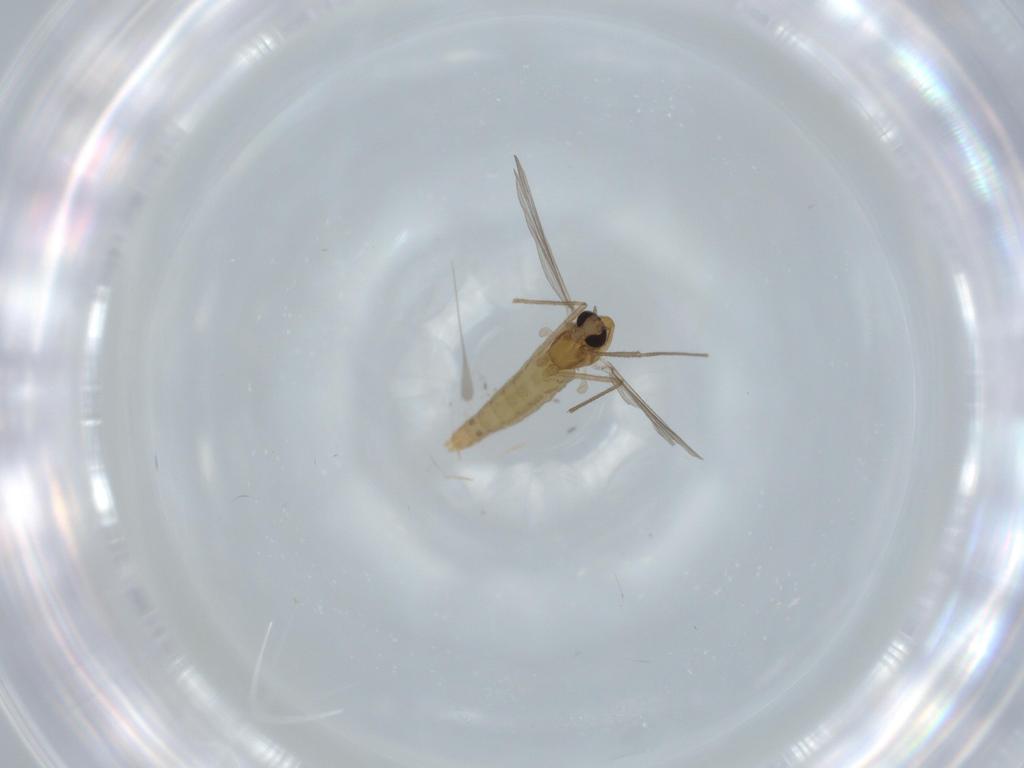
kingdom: Animalia
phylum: Arthropoda
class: Insecta
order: Diptera
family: Chironomidae
